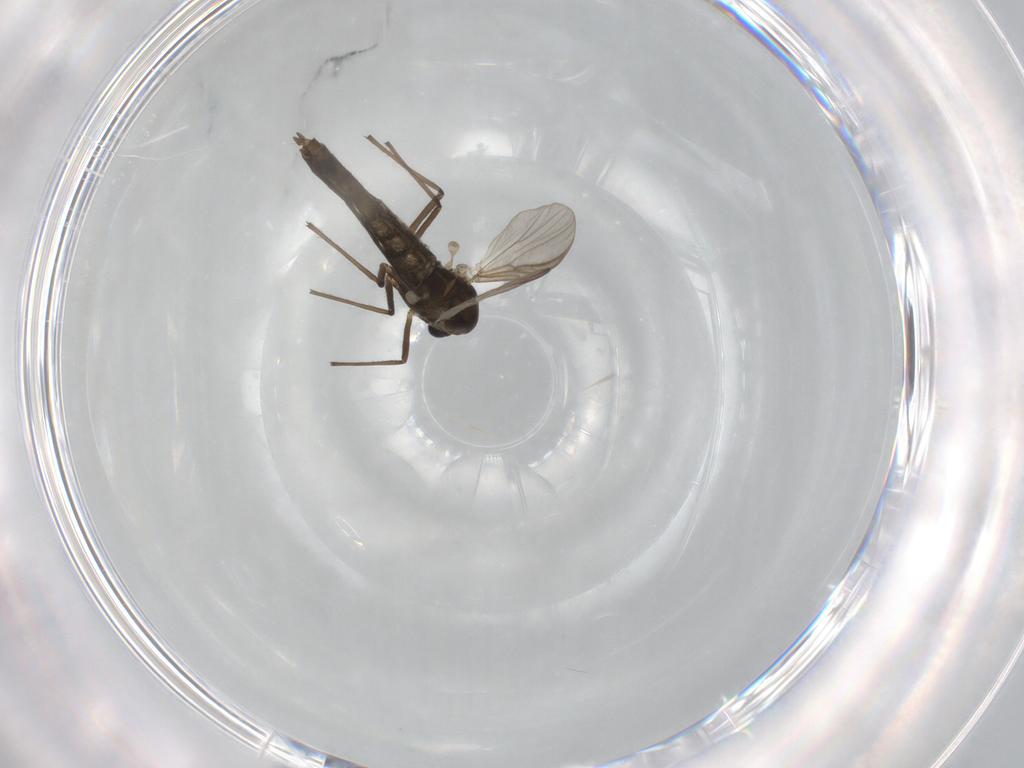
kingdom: Animalia
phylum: Arthropoda
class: Insecta
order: Diptera
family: Chironomidae
